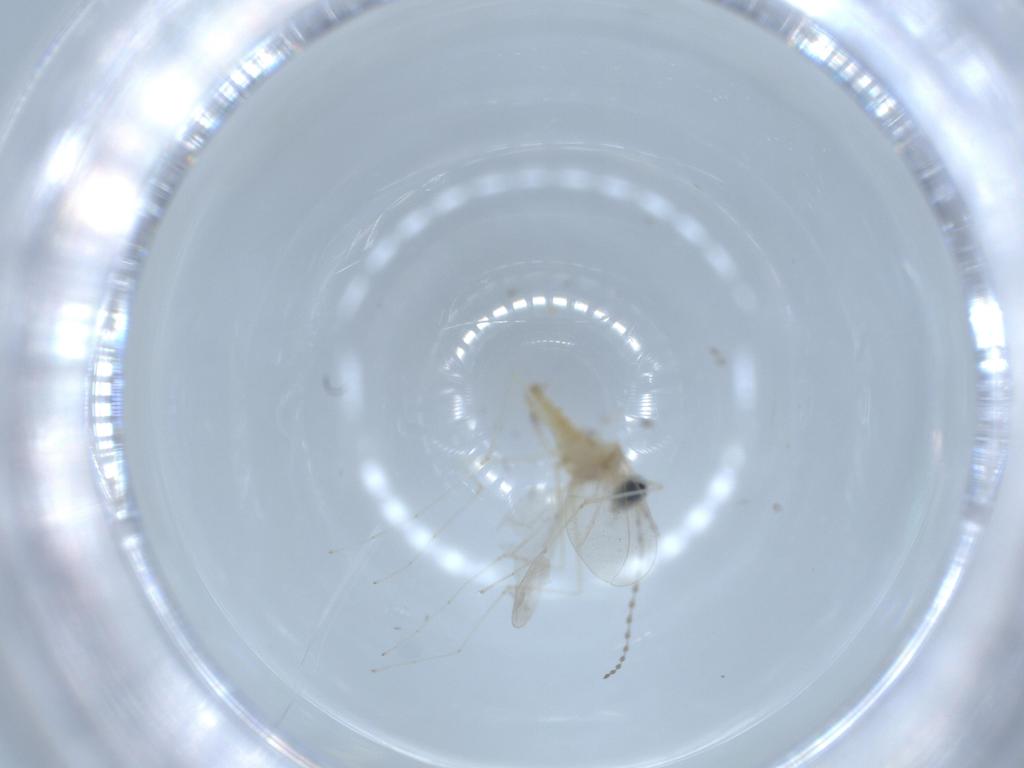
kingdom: Animalia
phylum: Arthropoda
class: Insecta
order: Diptera
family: Cecidomyiidae
